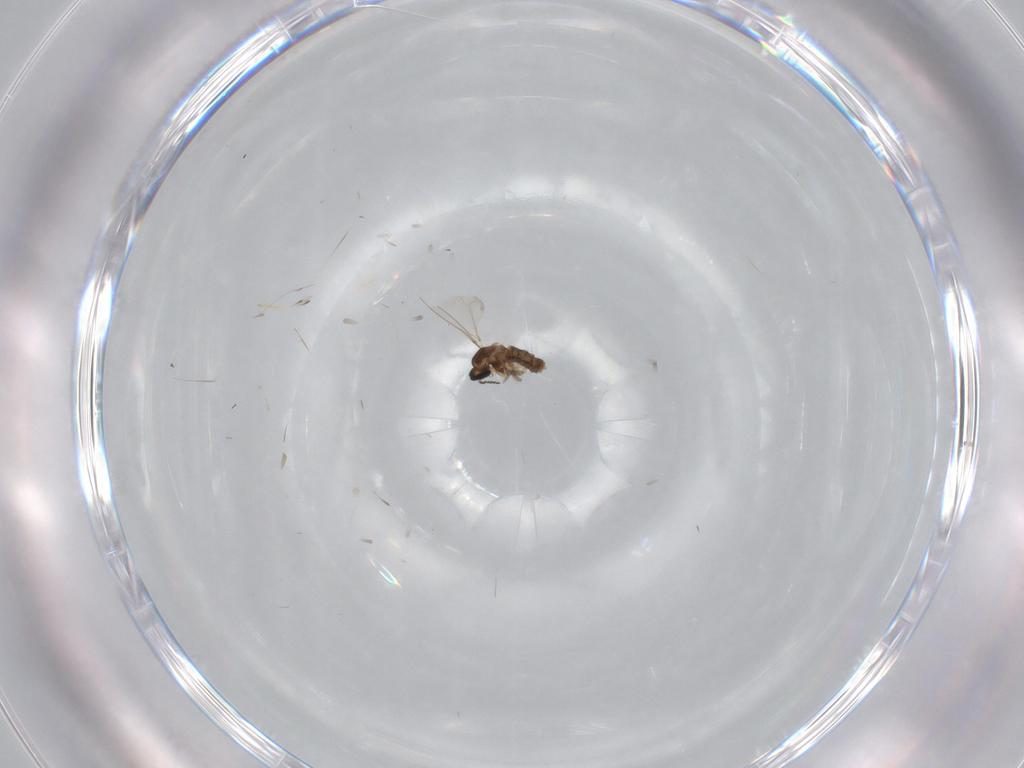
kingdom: Animalia
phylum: Arthropoda
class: Insecta
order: Diptera
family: Cecidomyiidae
